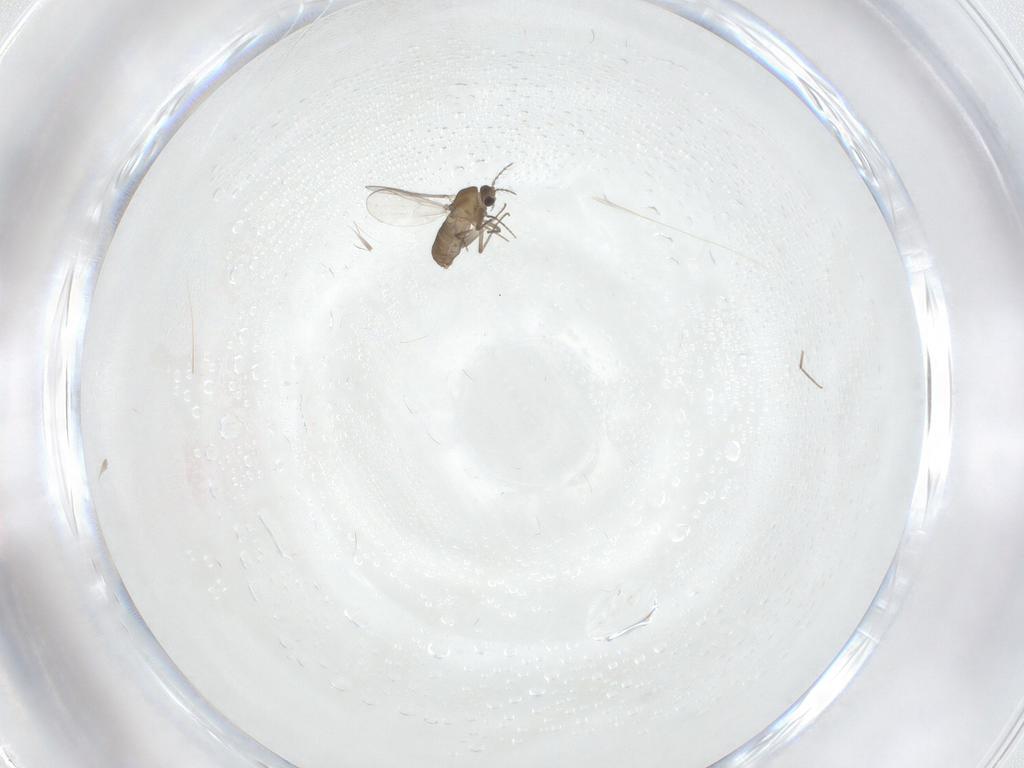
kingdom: Animalia
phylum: Arthropoda
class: Insecta
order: Diptera
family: Chironomidae
